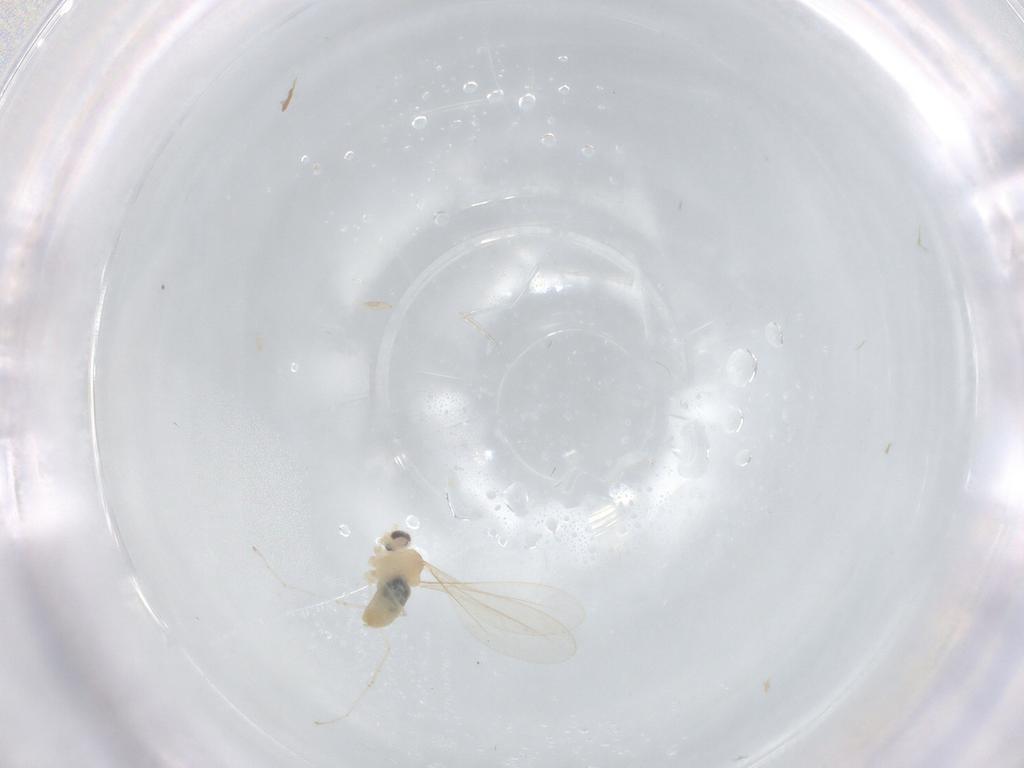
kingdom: Animalia
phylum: Arthropoda
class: Insecta
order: Diptera
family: Cecidomyiidae
